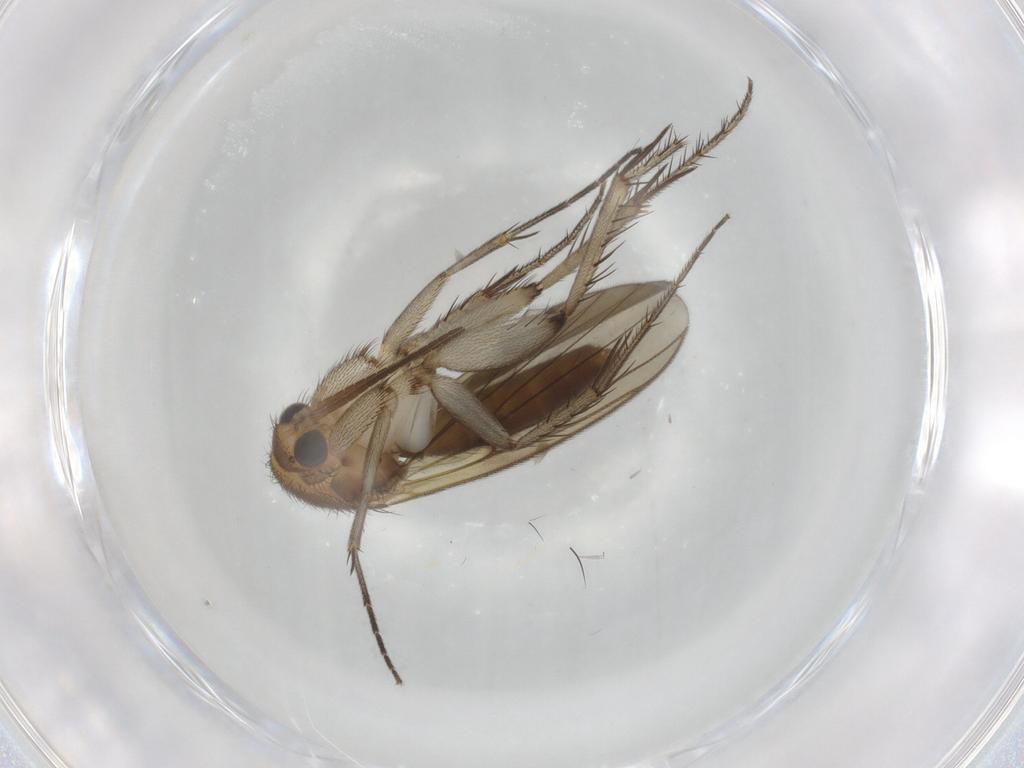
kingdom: Animalia
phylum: Arthropoda
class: Insecta
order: Diptera
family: Mycetophilidae
